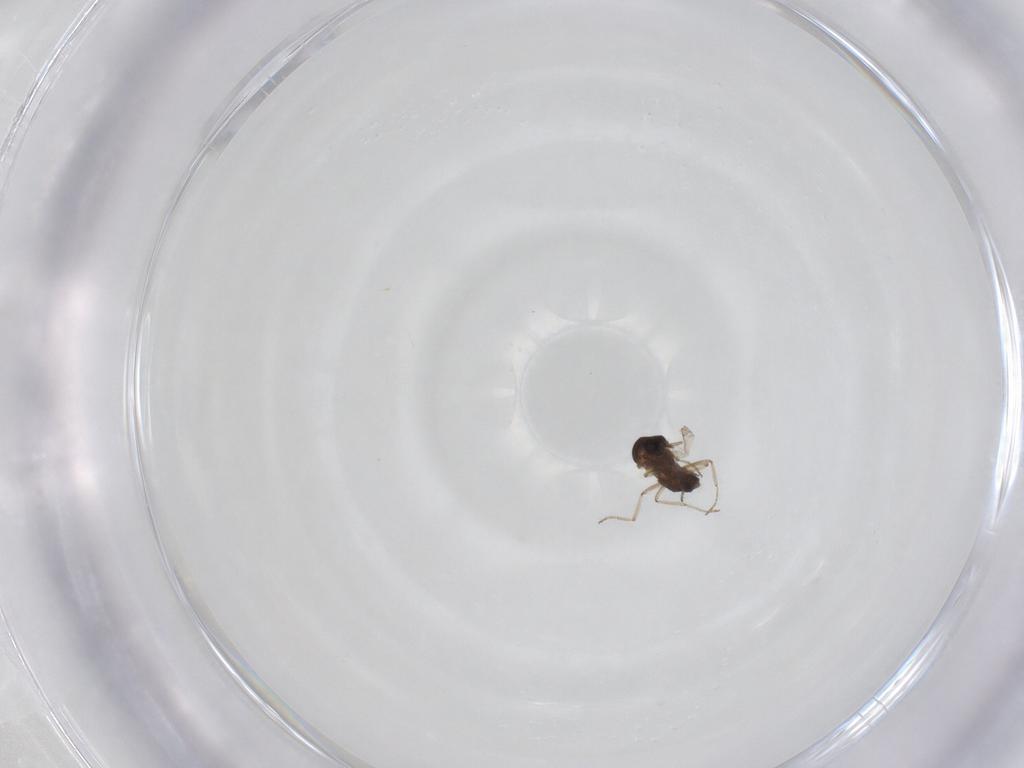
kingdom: Animalia
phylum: Arthropoda
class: Insecta
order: Diptera
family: Ceratopogonidae
